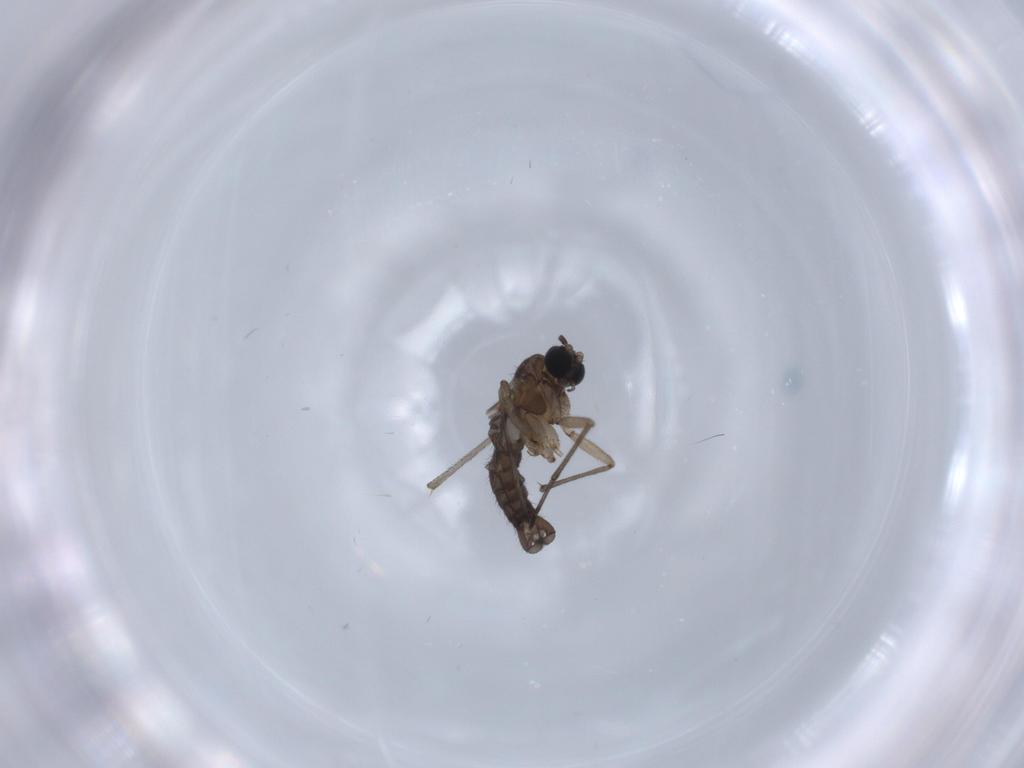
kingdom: Animalia
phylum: Arthropoda
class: Insecta
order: Diptera
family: Sciaridae
